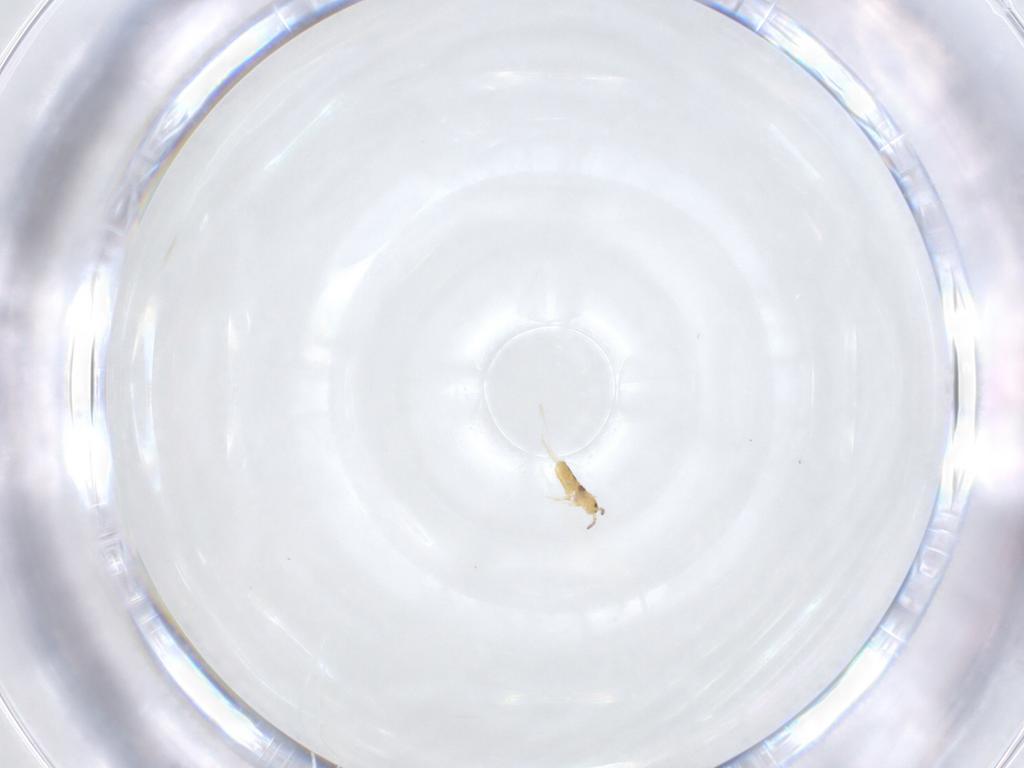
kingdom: Animalia
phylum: Arthropoda
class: Collembola
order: Entomobryomorpha
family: Entomobryidae
